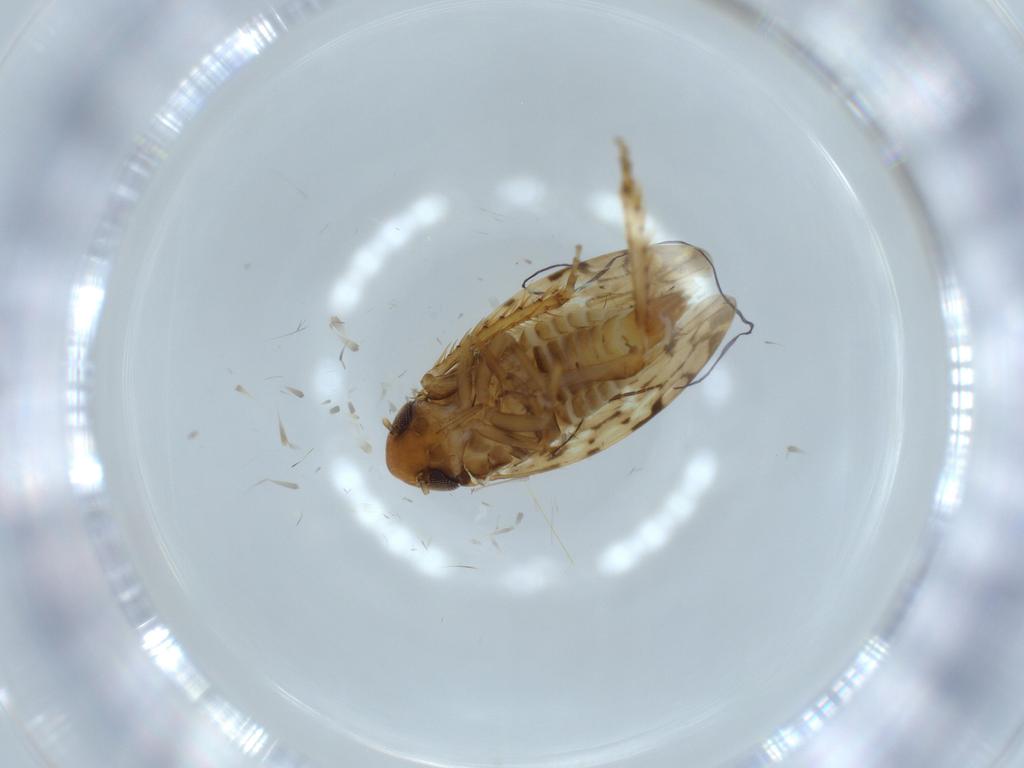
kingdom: Animalia
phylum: Arthropoda
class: Insecta
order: Hemiptera
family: Cicadellidae
